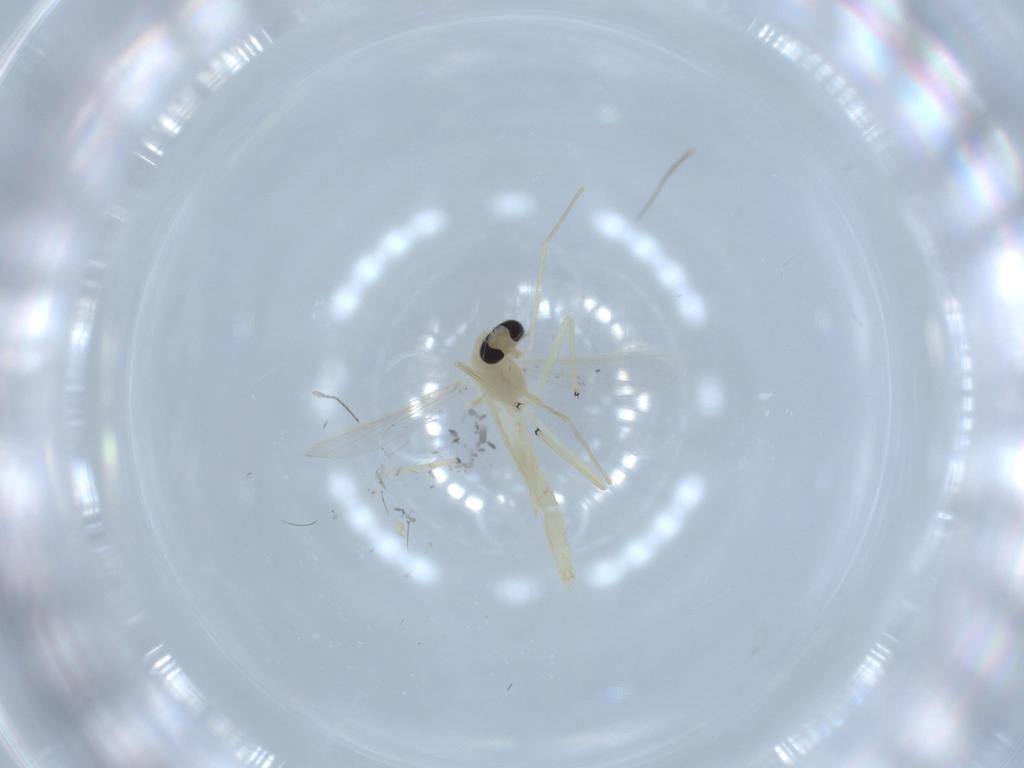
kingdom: Animalia
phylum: Arthropoda
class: Insecta
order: Diptera
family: Chironomidae
